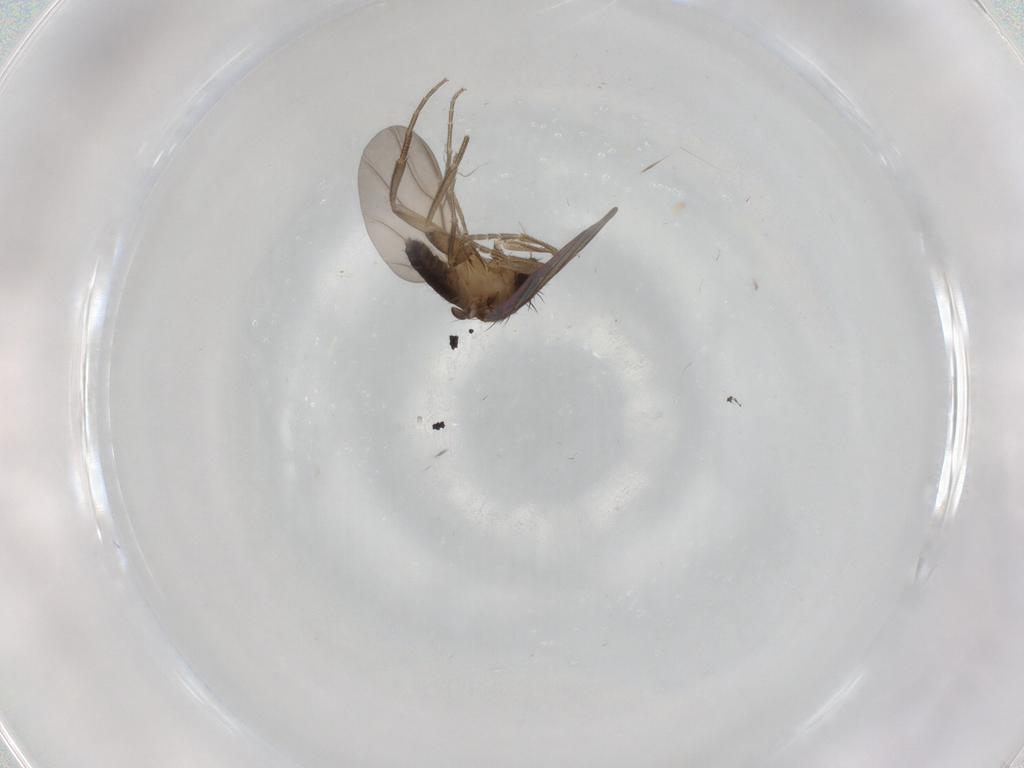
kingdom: Animalia
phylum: Arthropoda
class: Insecta
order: Diptera
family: Phoridae
